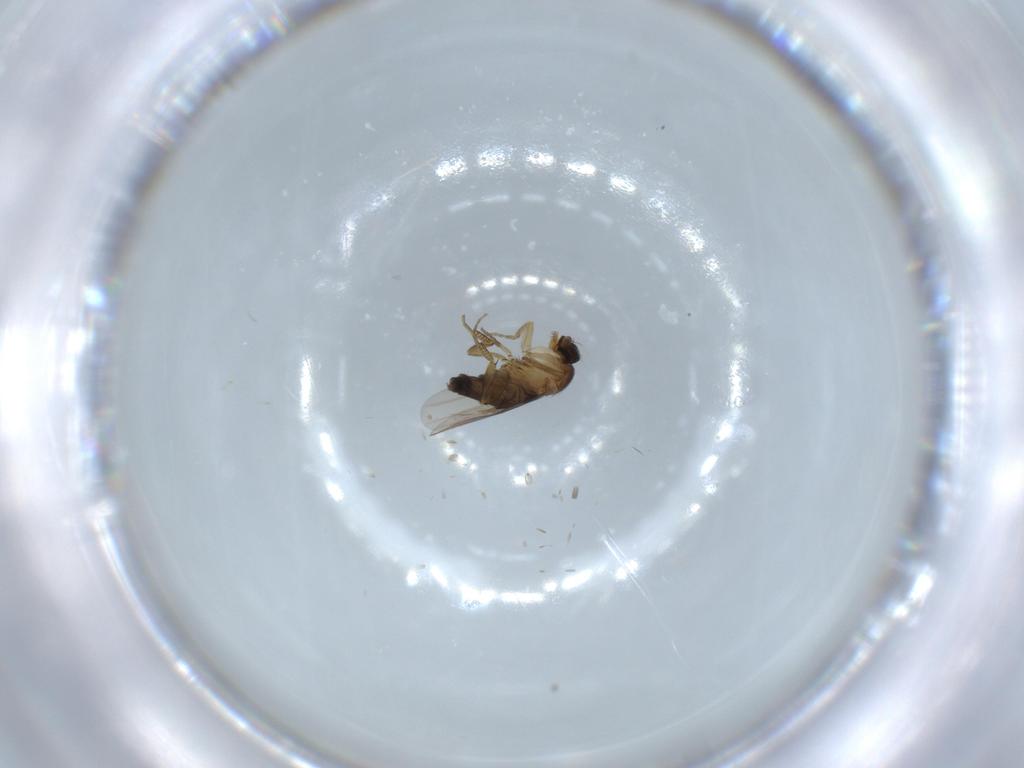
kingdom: Animalia
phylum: Arthropoda
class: Insecta
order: Diptera
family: Phoridae
